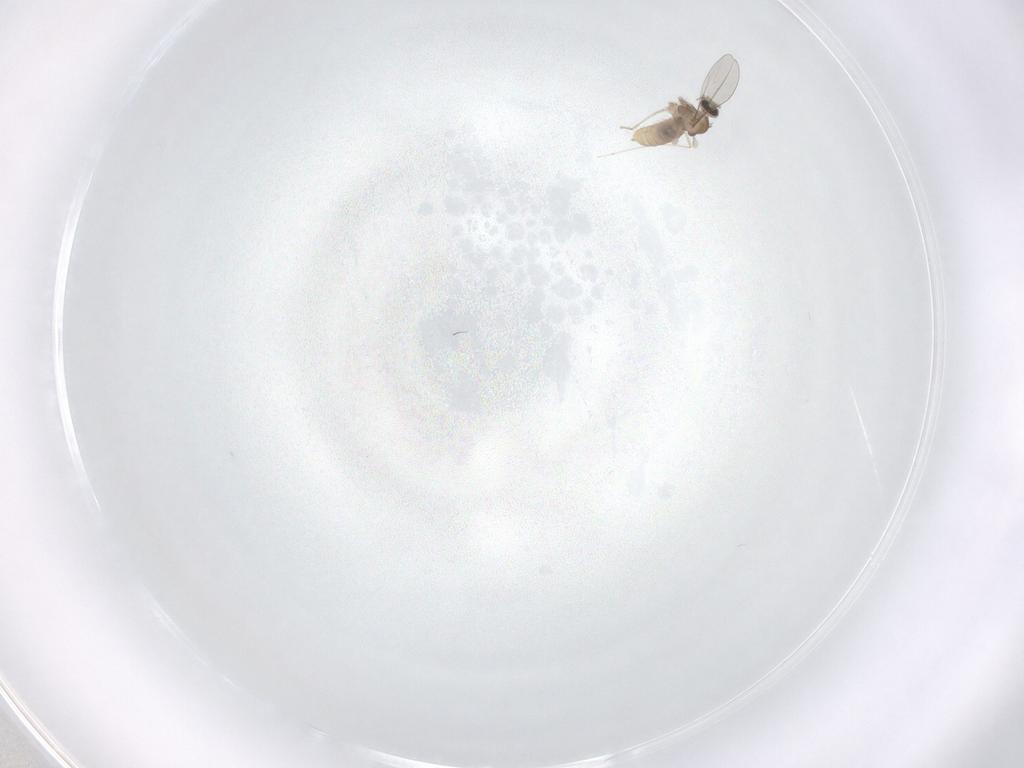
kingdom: Animalia
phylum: Arthropoda
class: Insecta
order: Diptera
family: Cecidomyiidae
